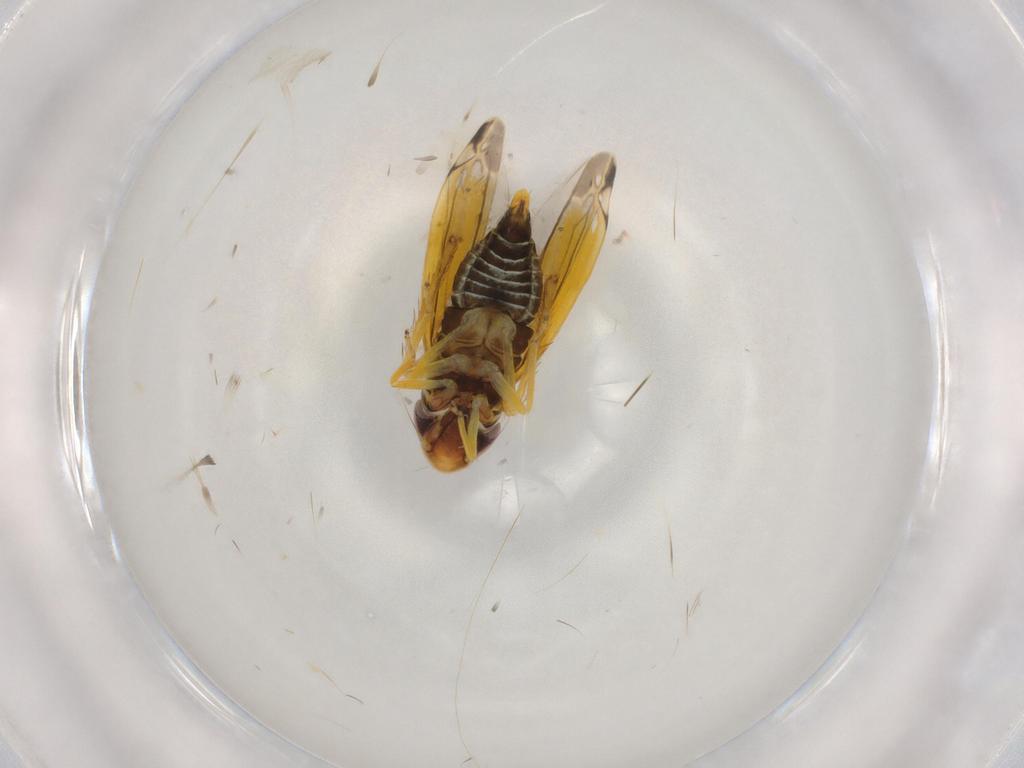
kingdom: Animalia
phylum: Arthropoda
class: Insecta
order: Hemiptera
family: Cicadellidae
